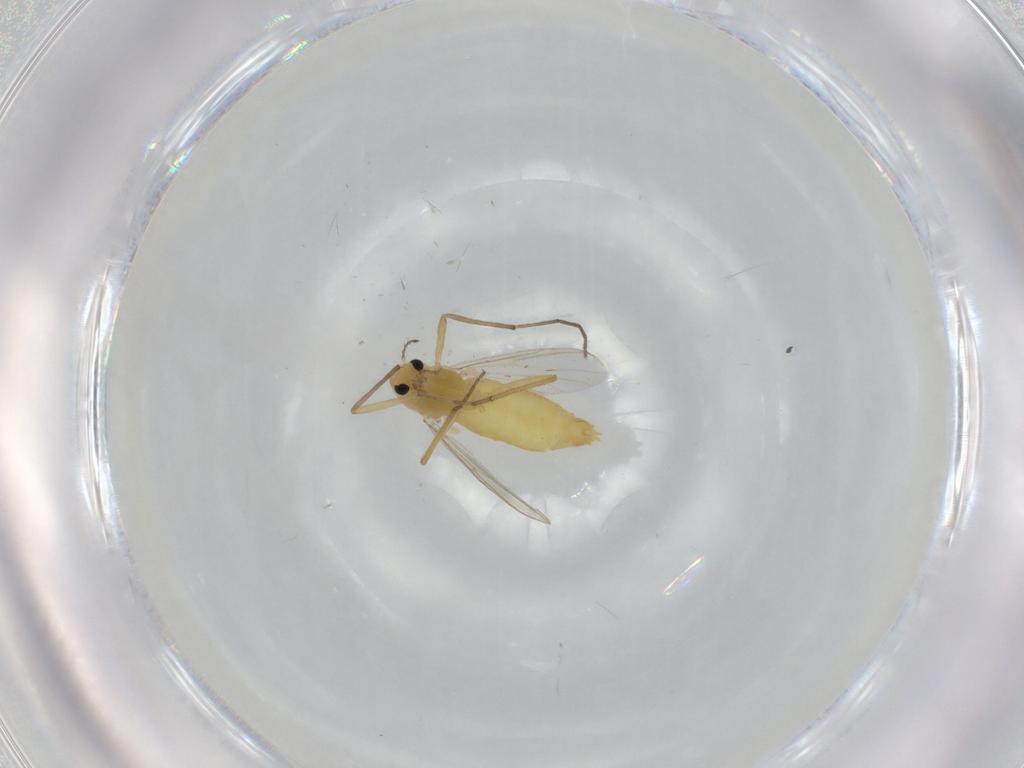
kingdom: Animalia
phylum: Arthropoda
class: Insecta
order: Diptera
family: Chironomidae
